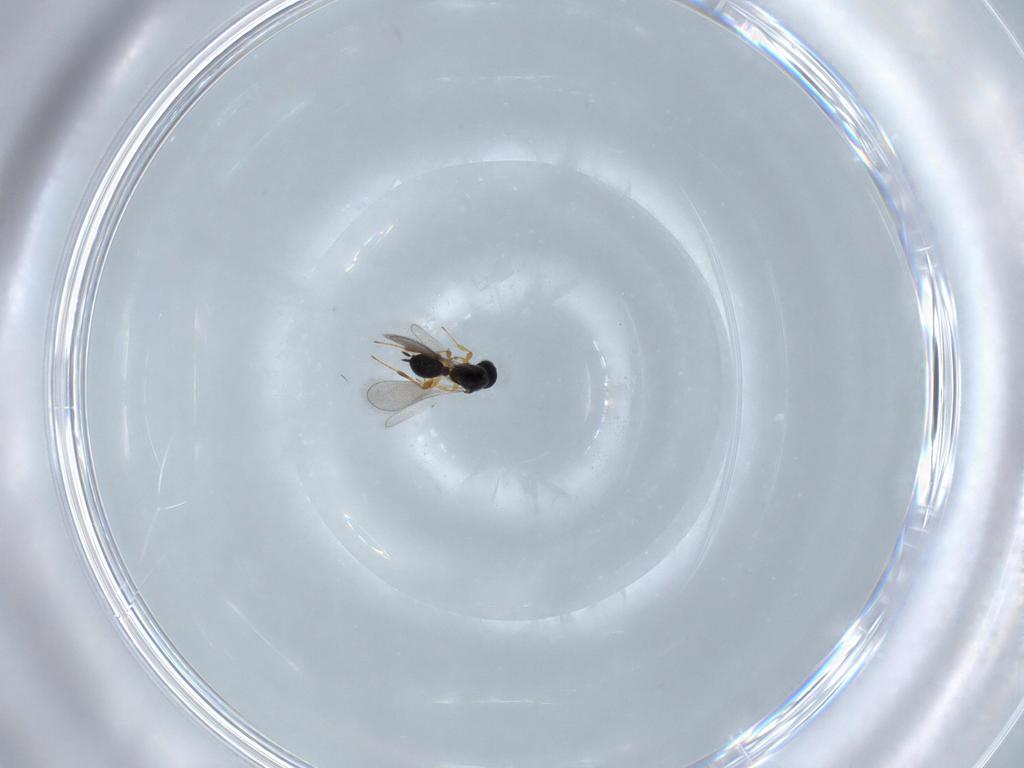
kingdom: Animalia
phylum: Arthropoda
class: Insecta
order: Hymenoptera
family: Platygastridae
